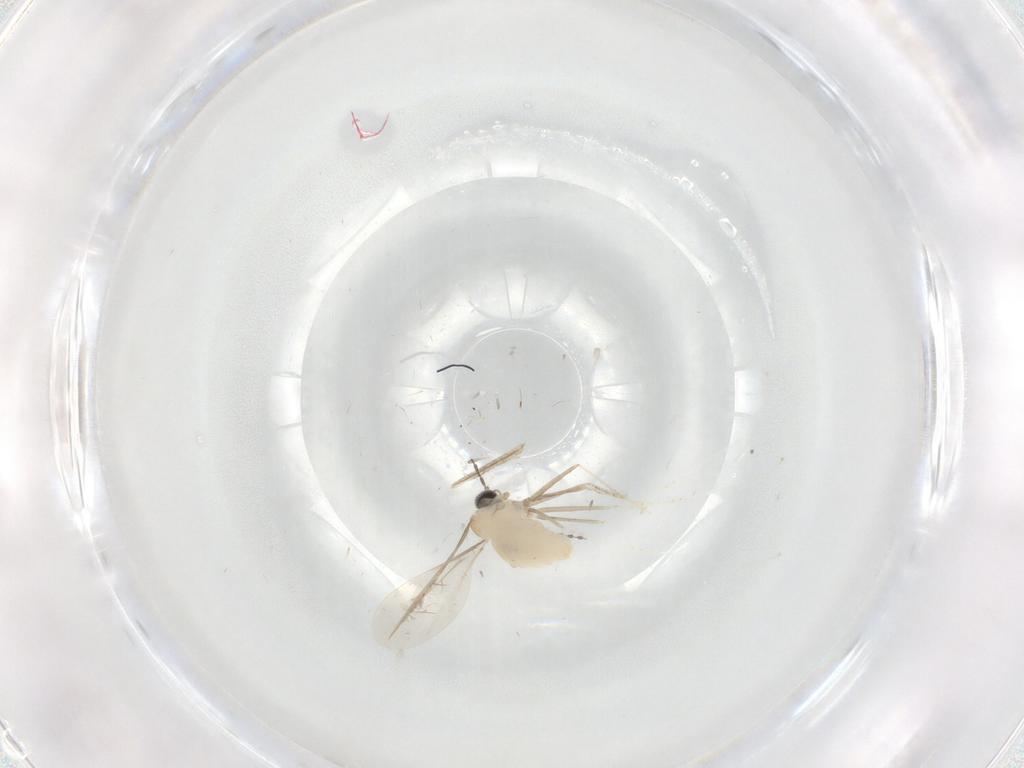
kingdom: Animalia
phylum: Arthropoda
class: Insecta
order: Diptera
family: Cecidomyiidae
